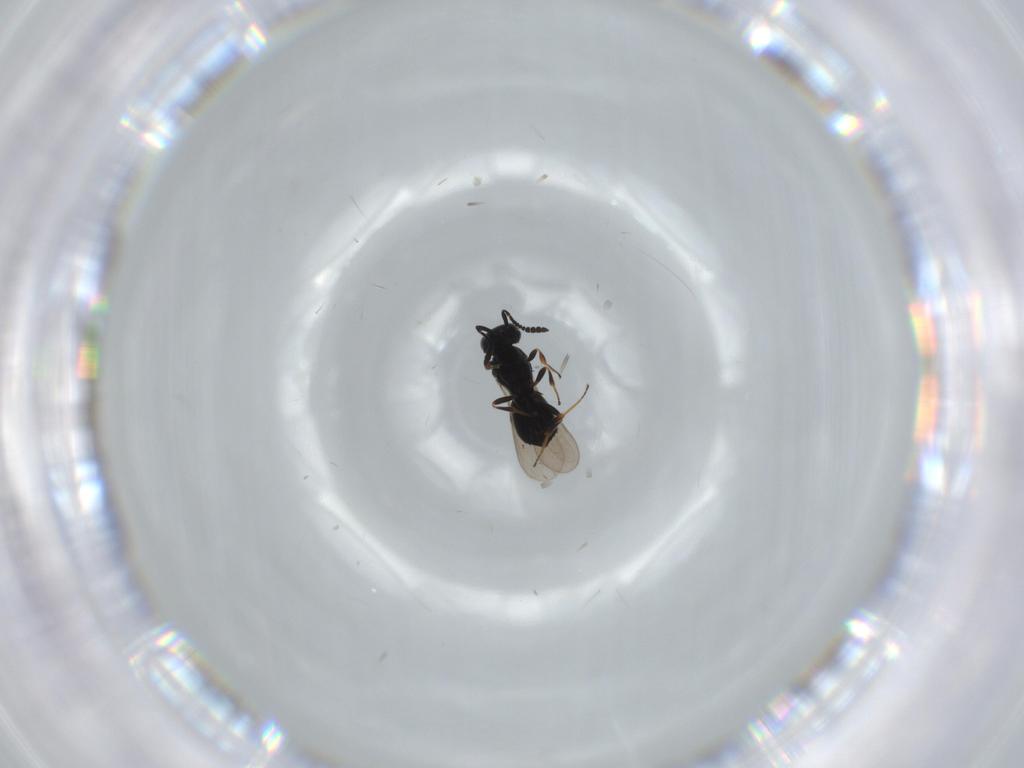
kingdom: Animalia
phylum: Arthropoda
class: Insecta
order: Hymenoptera
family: Scelionidae
